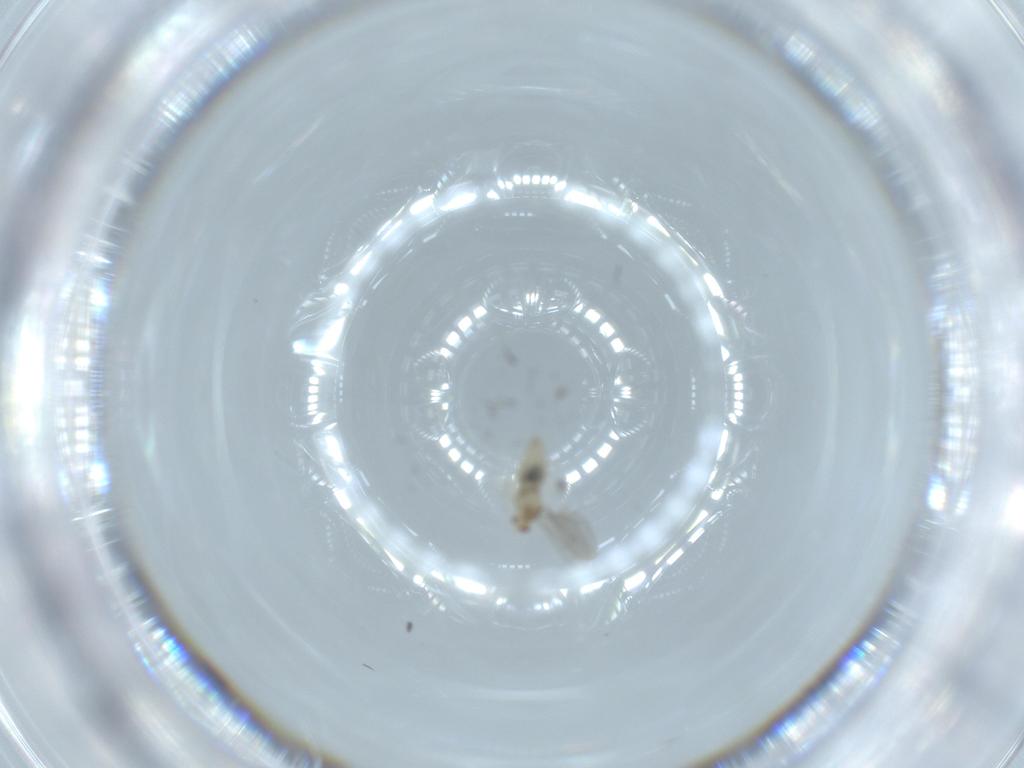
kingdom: Animalia
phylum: Arthropoda
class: Insecta
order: Diptera
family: Cecidomyiidae
